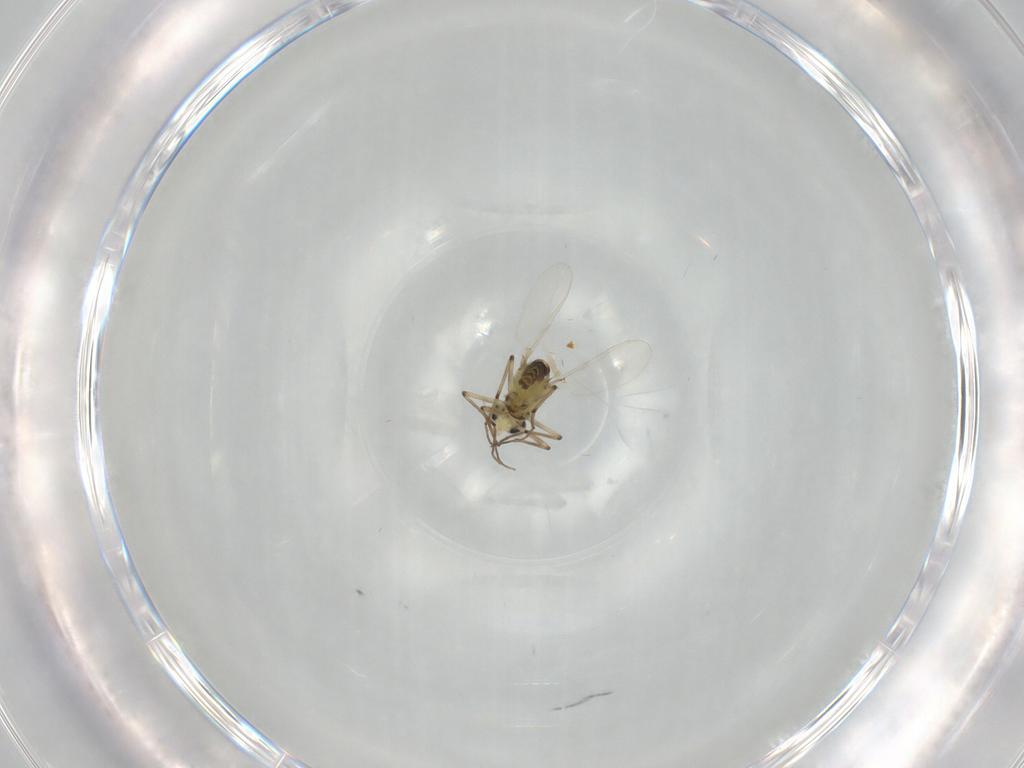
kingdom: Animalia
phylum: Arthropoda
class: Insecta
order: Diptera
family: Chironomidae
